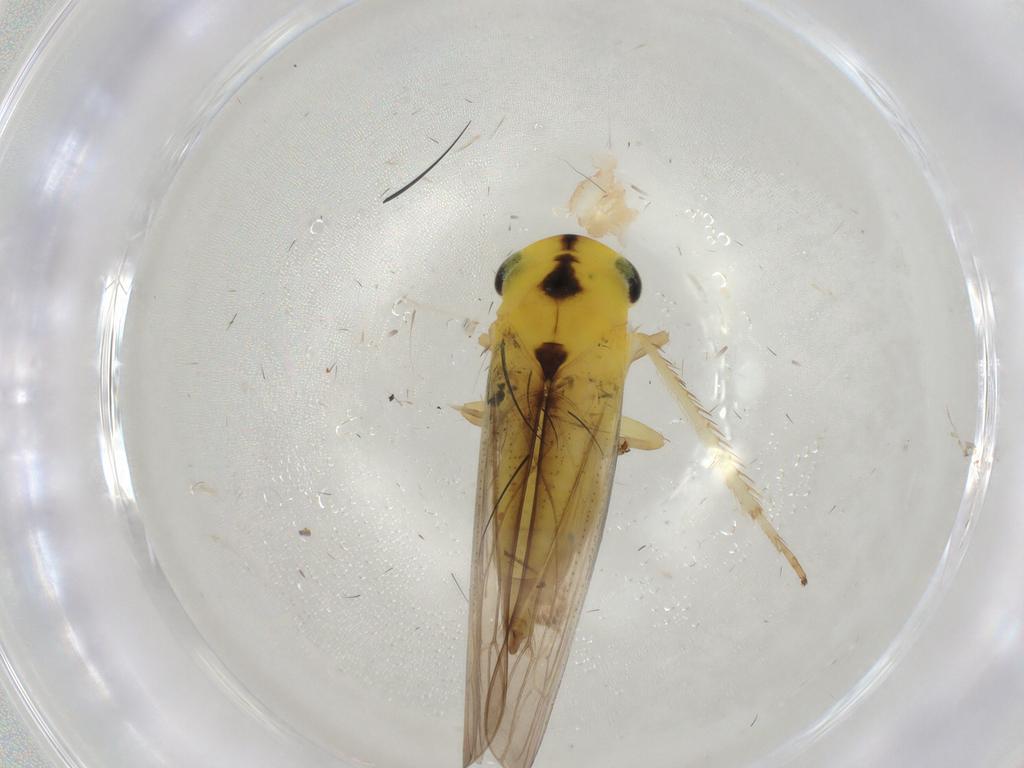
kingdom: Animalia
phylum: Arthropoda
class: Insecta
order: Hemiptera
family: Cicadellidae
